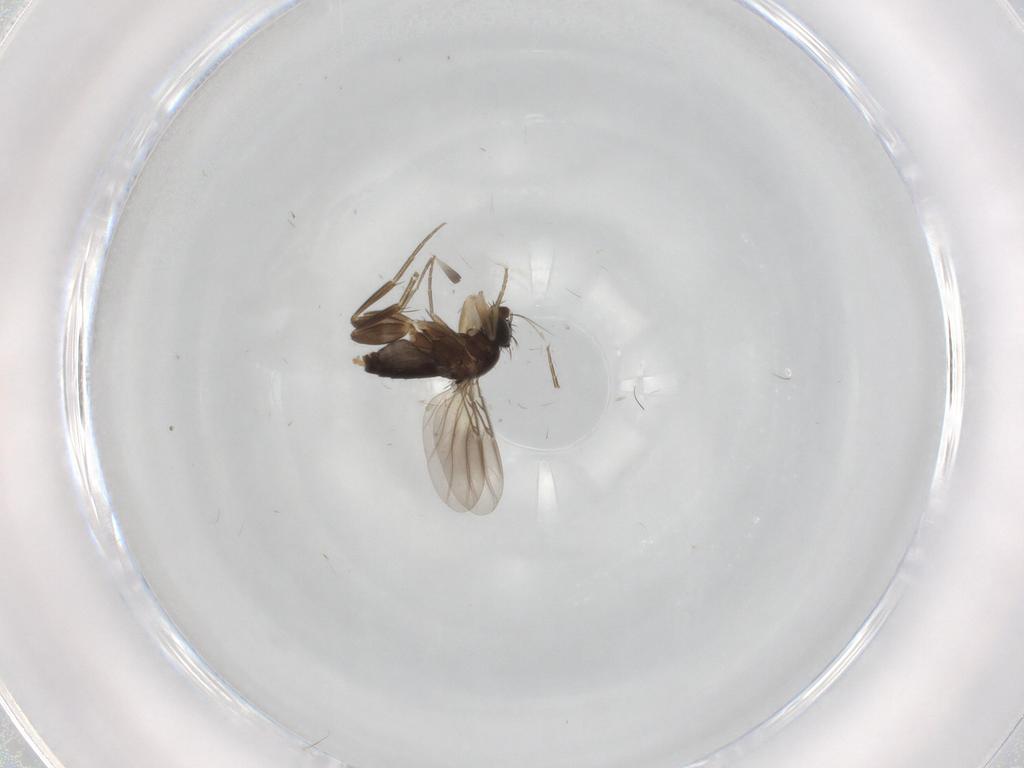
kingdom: Animalia
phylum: Arthropoda
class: Insecta
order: Diptera
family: Phoridae
